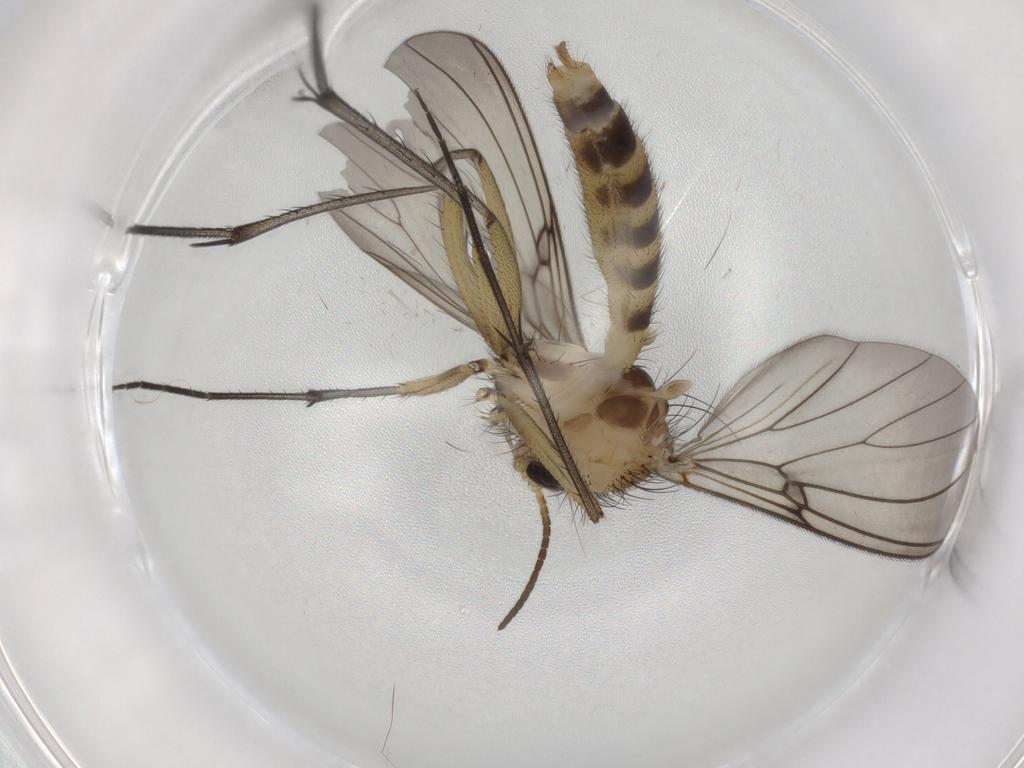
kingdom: Animalia
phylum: Arthropoda
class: Insecta
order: Diptera
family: Mycetophilidae
